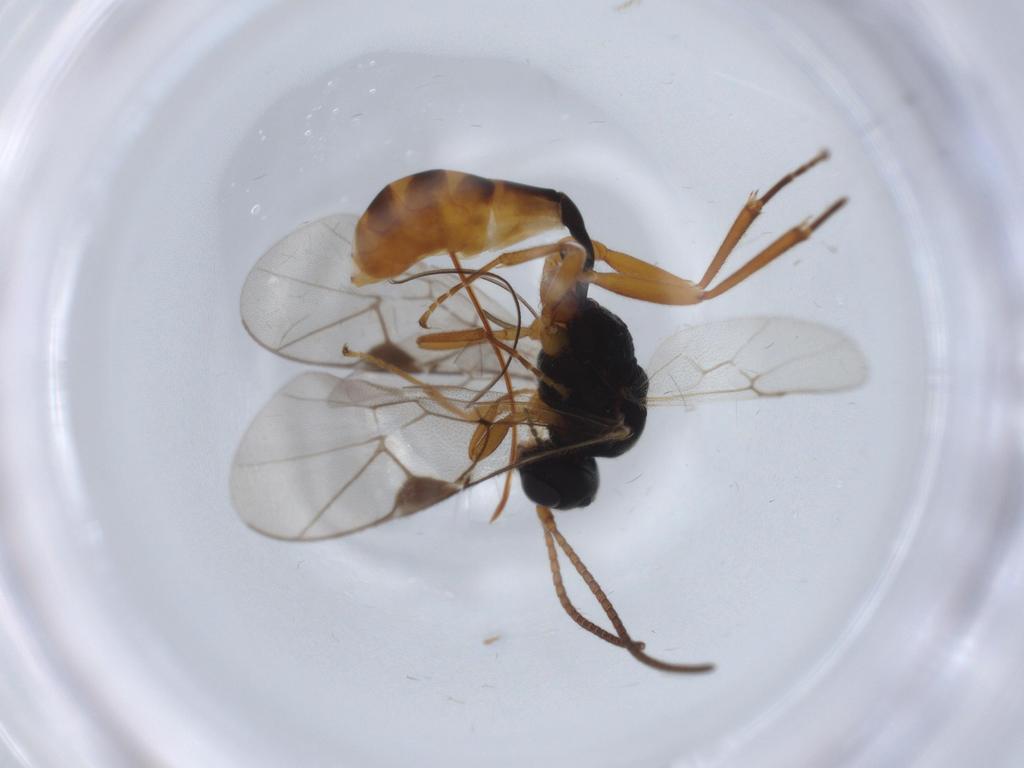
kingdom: Animalia
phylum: Arthropoda
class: Insecta
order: Hymenoptera
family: Ichneumonidae
